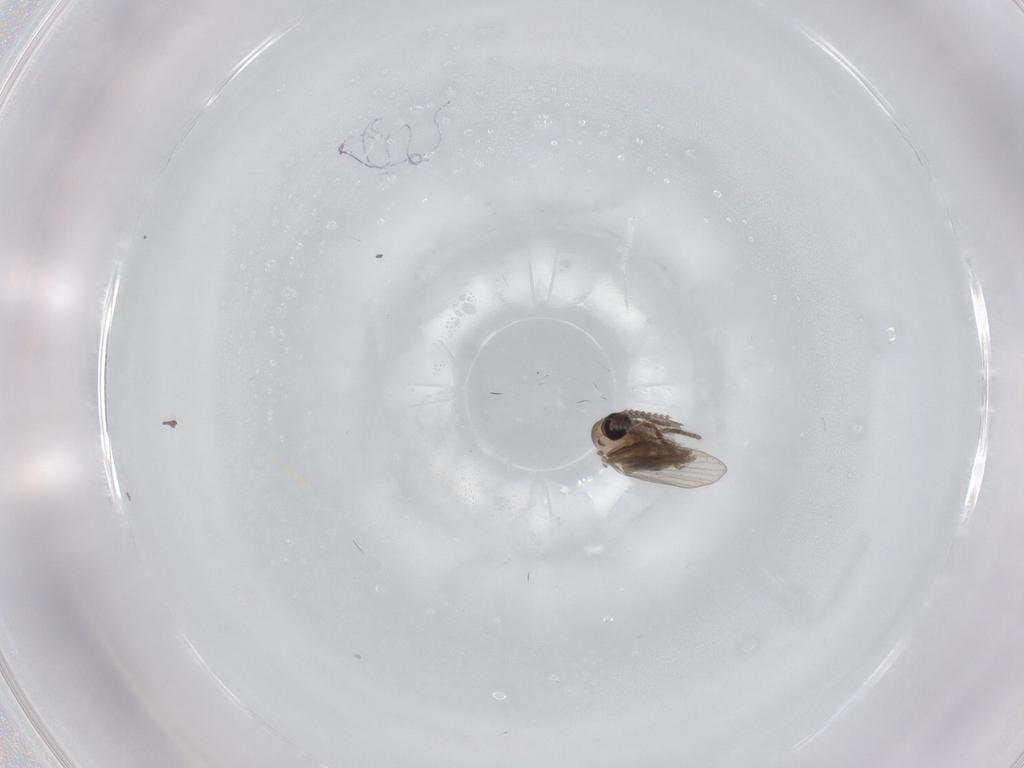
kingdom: Animalia
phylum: Arthropoda
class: Insecta
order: Diptera
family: Psychodidae
